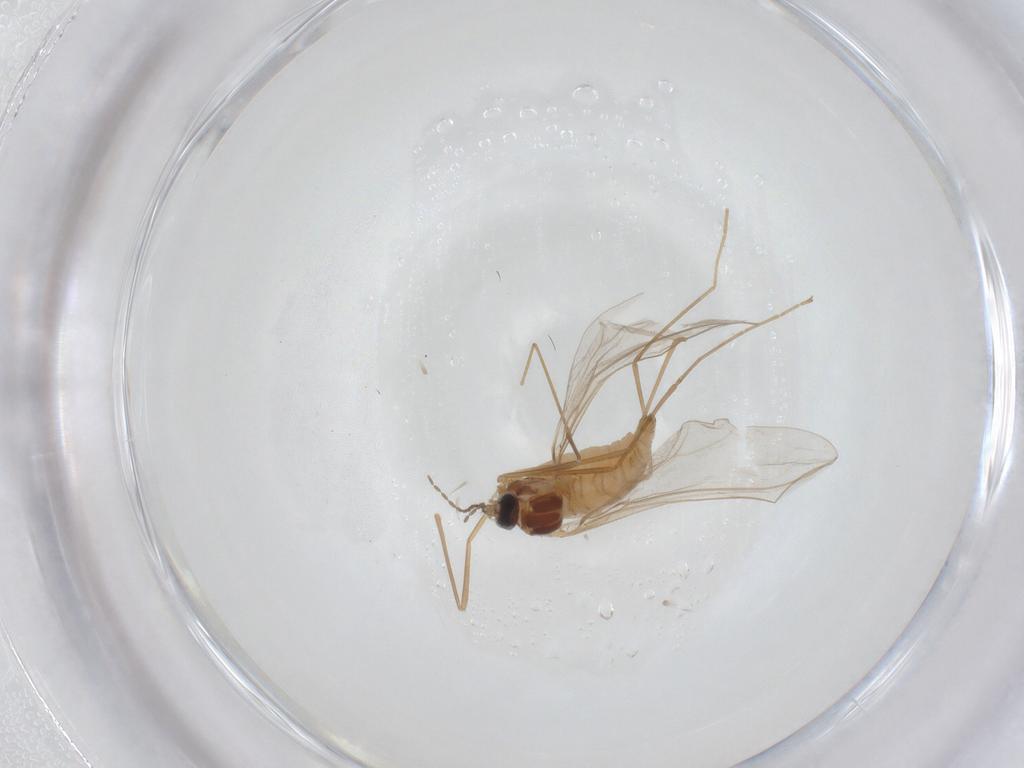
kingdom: Animalia
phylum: Arthropoda
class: Insecta
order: Diptera
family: Cecidomyiidae
